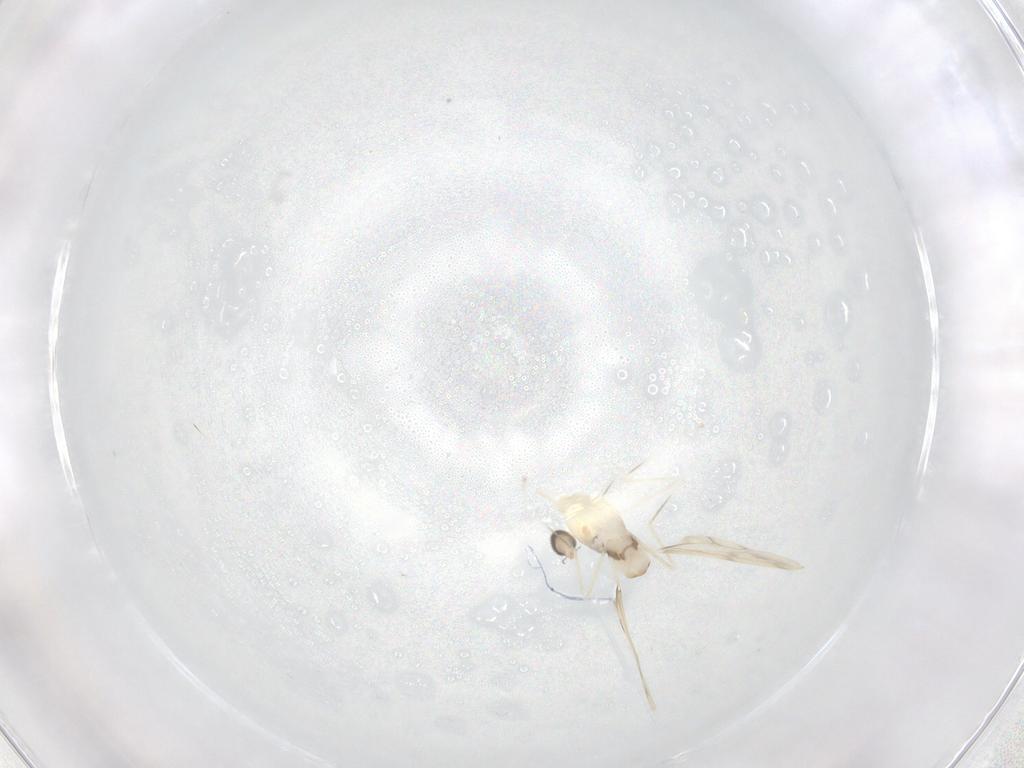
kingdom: Animalia
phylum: Arthropoda
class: Insecta
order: Diptera
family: Cecidomyiidae
